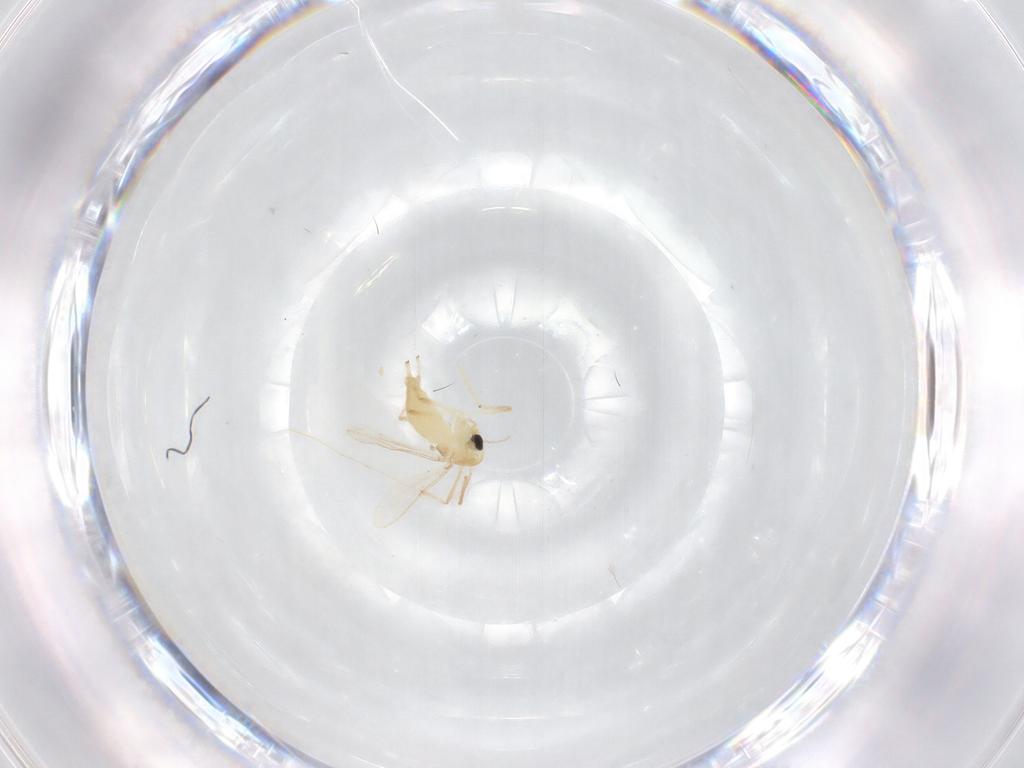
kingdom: Animalia
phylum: Arthropoda
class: Insecta
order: Diptera
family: Chironomidae
